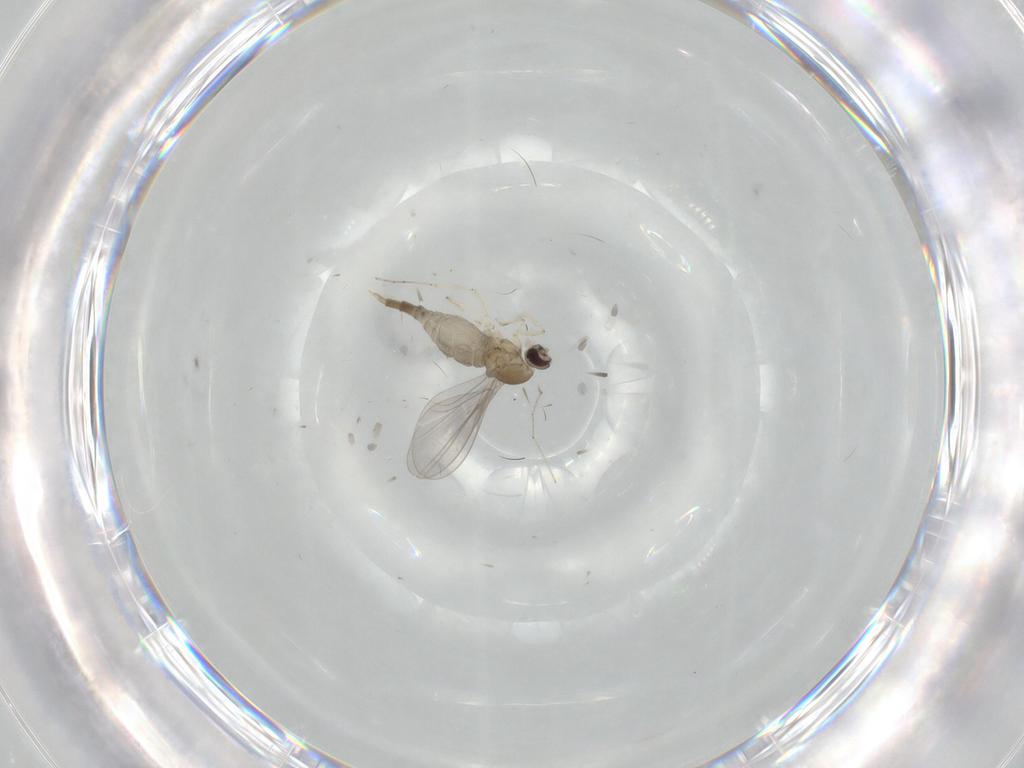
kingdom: Animalia
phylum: Arthropoda
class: Insecta
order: Diptera
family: Cecidomyiidae
